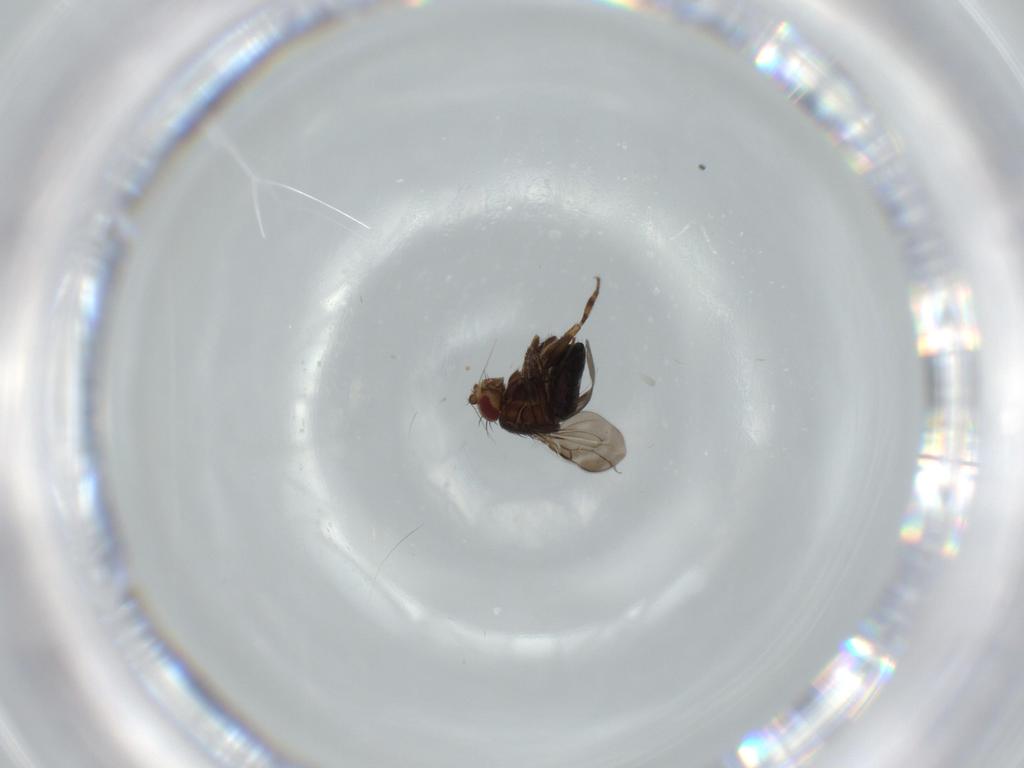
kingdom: Animalia
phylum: Arthropoda
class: Insecta
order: Diptera
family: Sphaeroceridae
